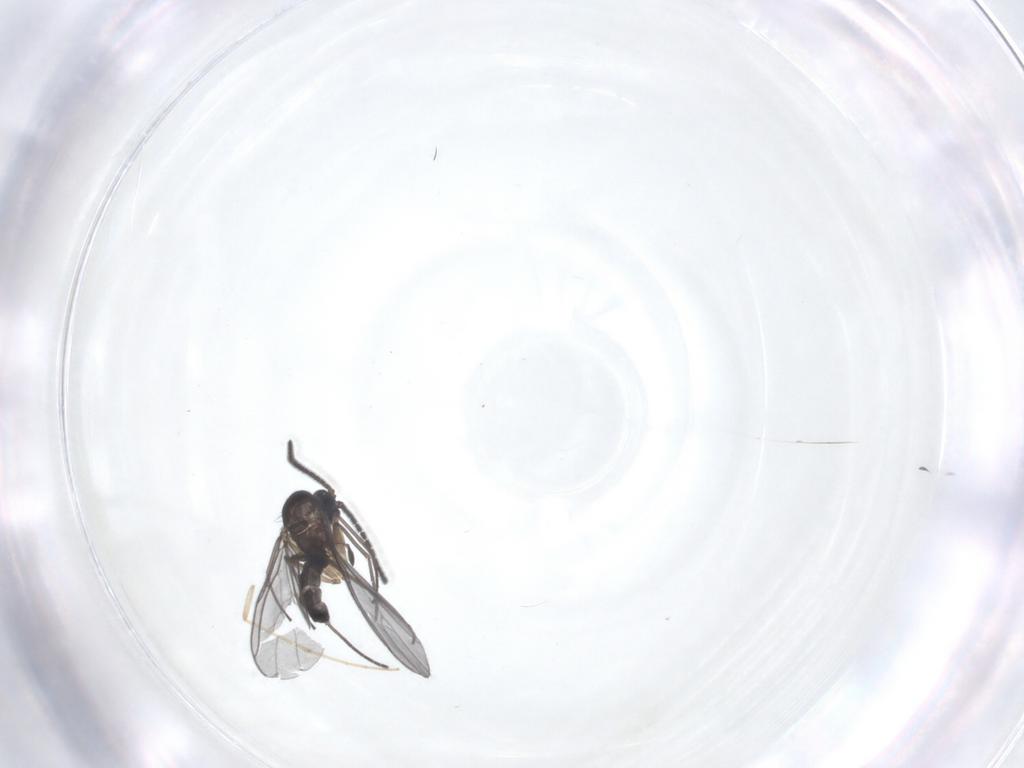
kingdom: Animalia
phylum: Arthropoda
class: Insecta
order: Diptera
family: Sciaridae
